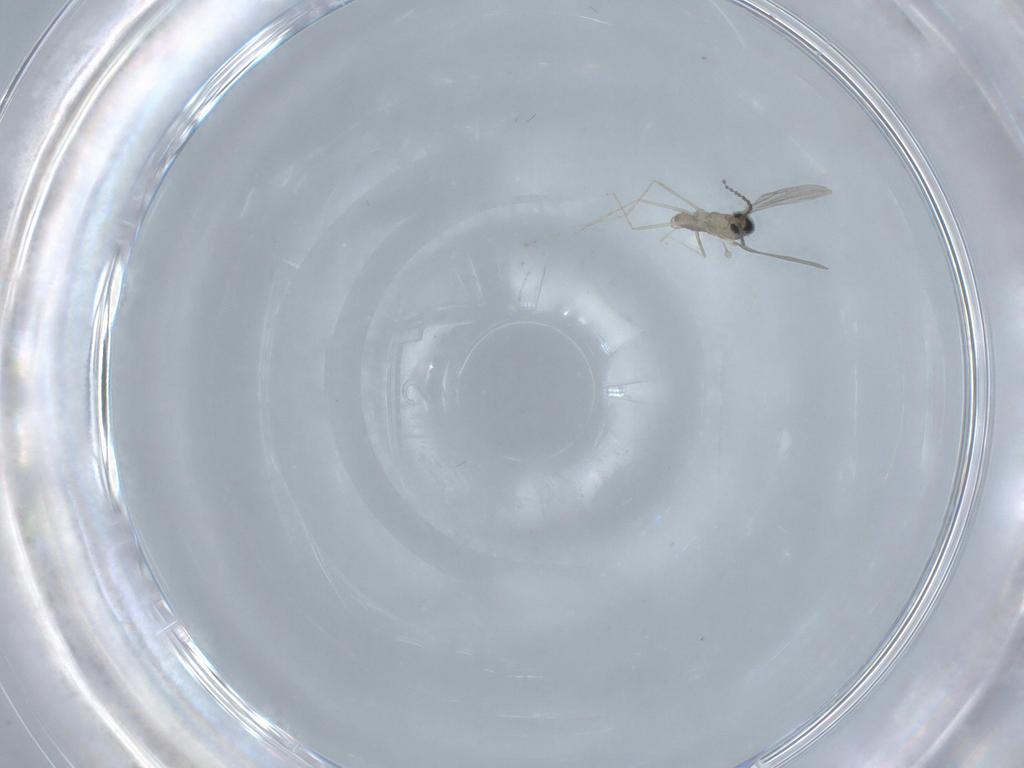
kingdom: Animalia
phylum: Arthropoda
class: Insecta
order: Diptera
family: Cecidomyiidae
